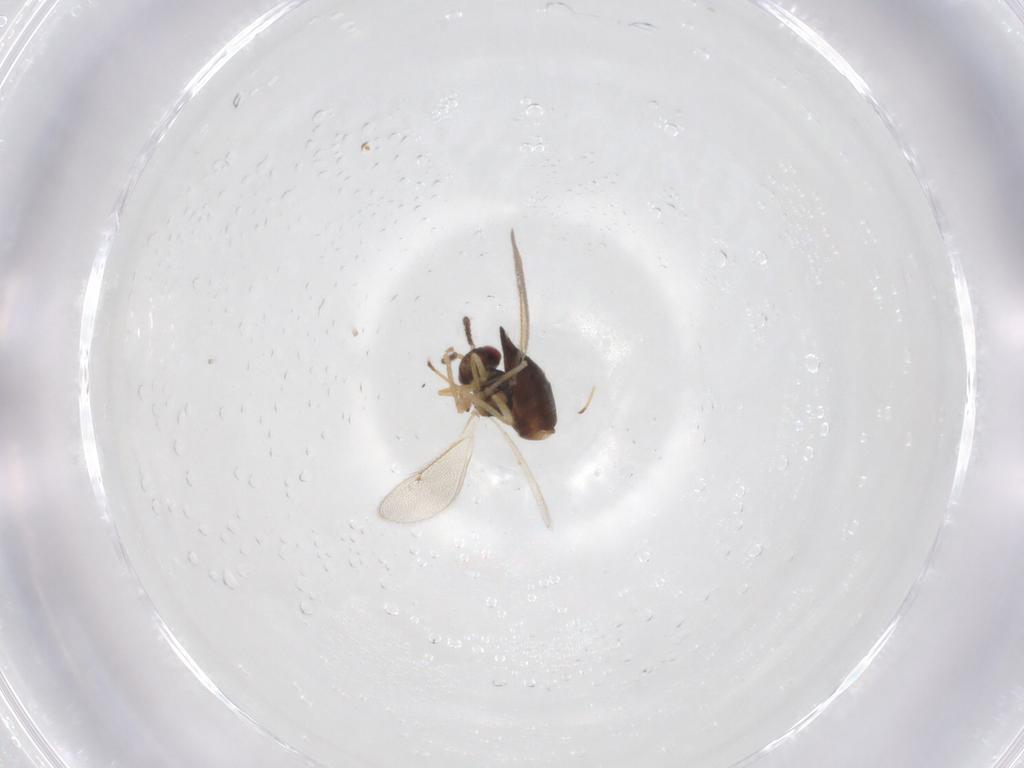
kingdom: Animalia
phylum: Arthropoda
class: Insecta
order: Hymenoptera
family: Eulophidae
